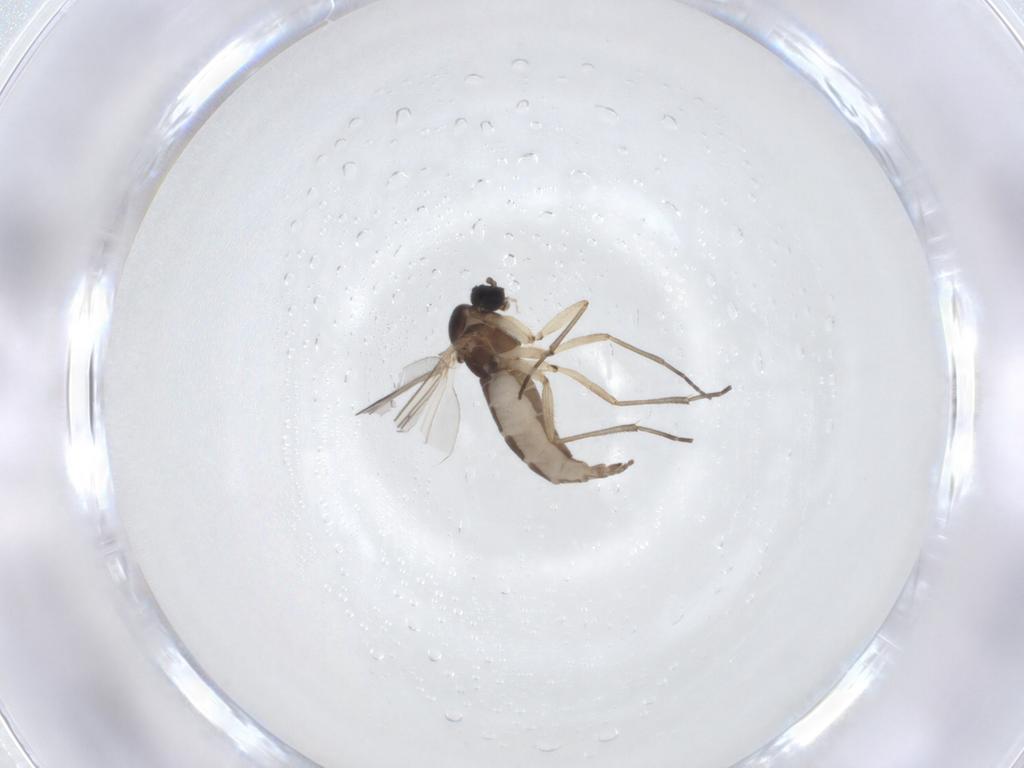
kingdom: Animalia
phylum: Arthropoda
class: Insecta
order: Diptera
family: Sciaridae
